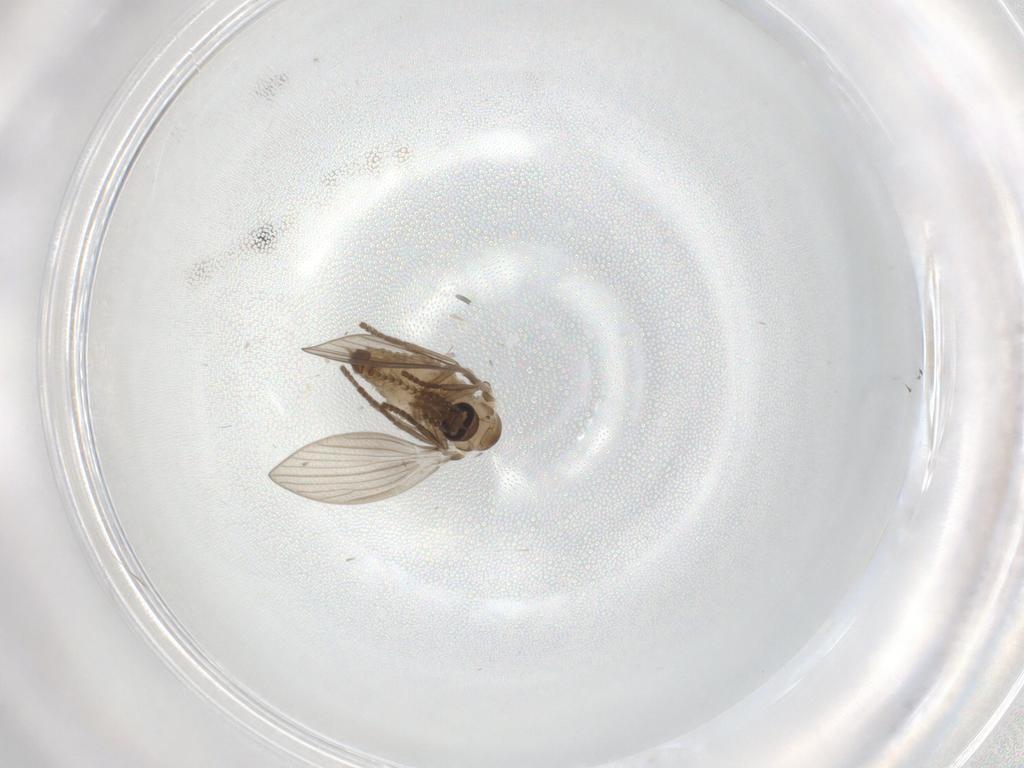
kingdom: Animalia
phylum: Arthropoda
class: Insecta
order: Diptera
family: Psychodidae
